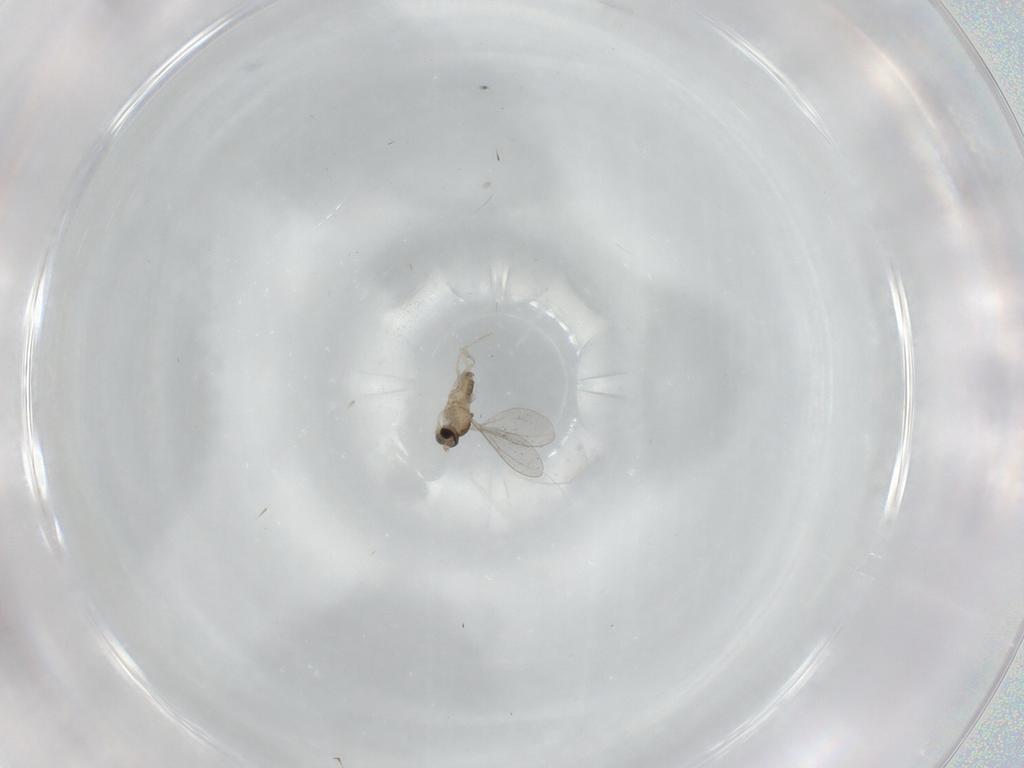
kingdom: Animalia
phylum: Arthropoda
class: Insecta
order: Diptera
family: Cecidomyiidae
